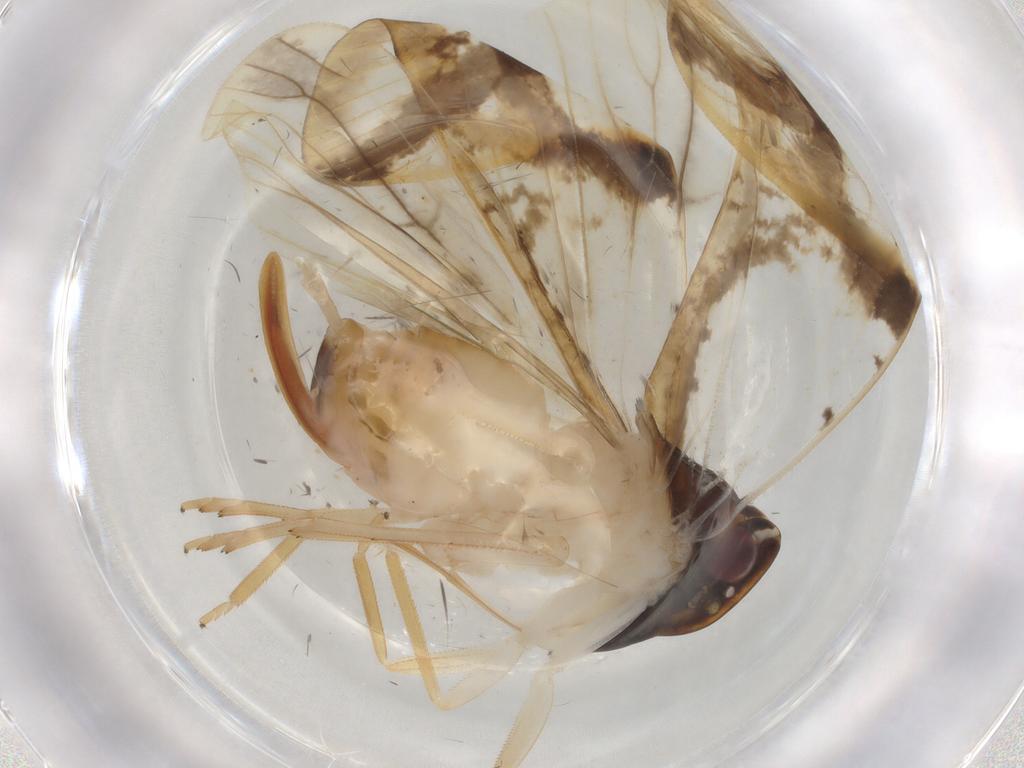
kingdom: Animalia
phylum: Arthropoda
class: Insecta
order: Hemiptera
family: Cixiidae
